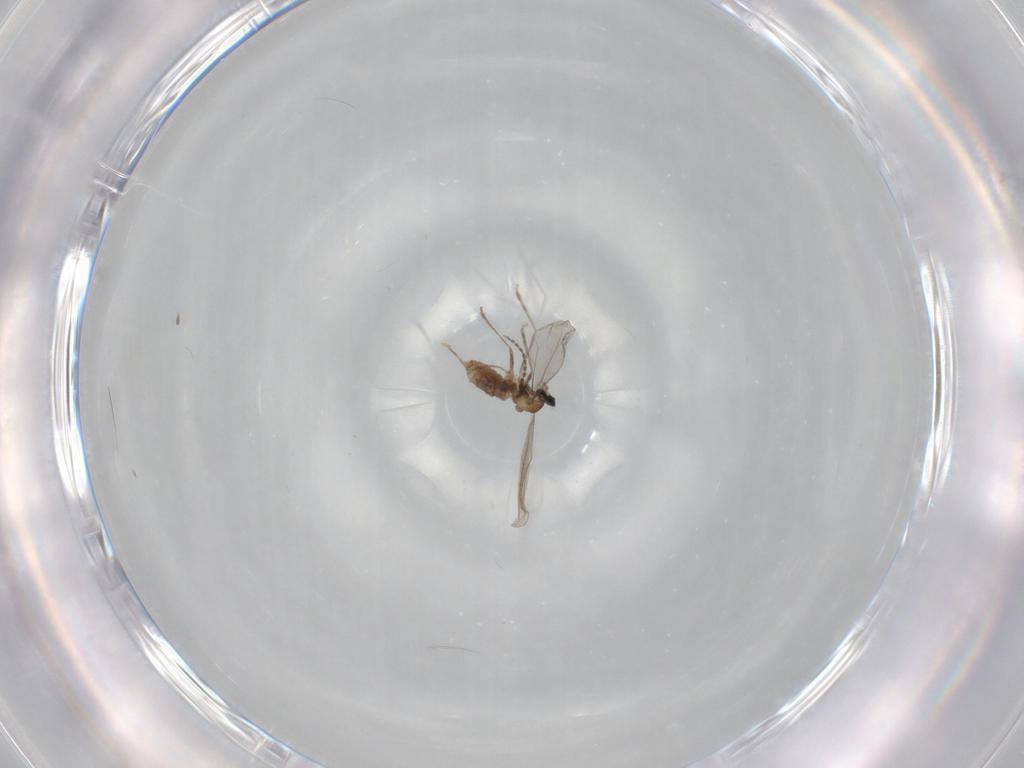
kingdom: Animalia
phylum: Arthropoda
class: Insecta
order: Diptera
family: Cecidomyiidae
